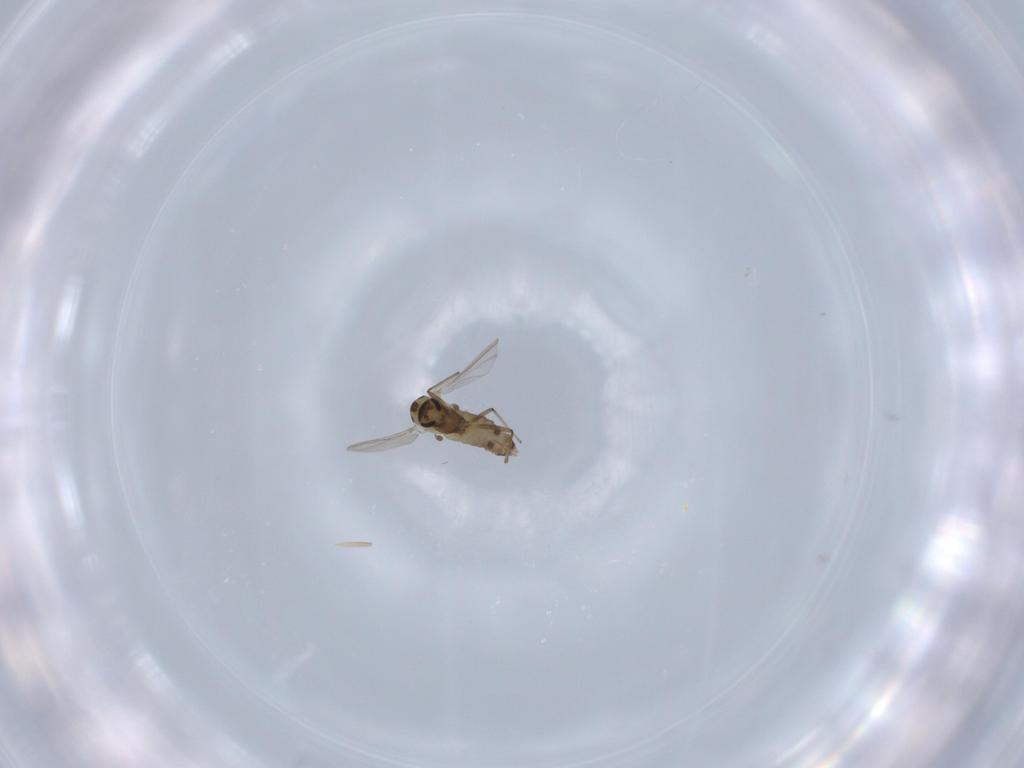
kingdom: Animalia
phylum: Arthropoda
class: Insecta
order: Diptera
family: Chironomidae
